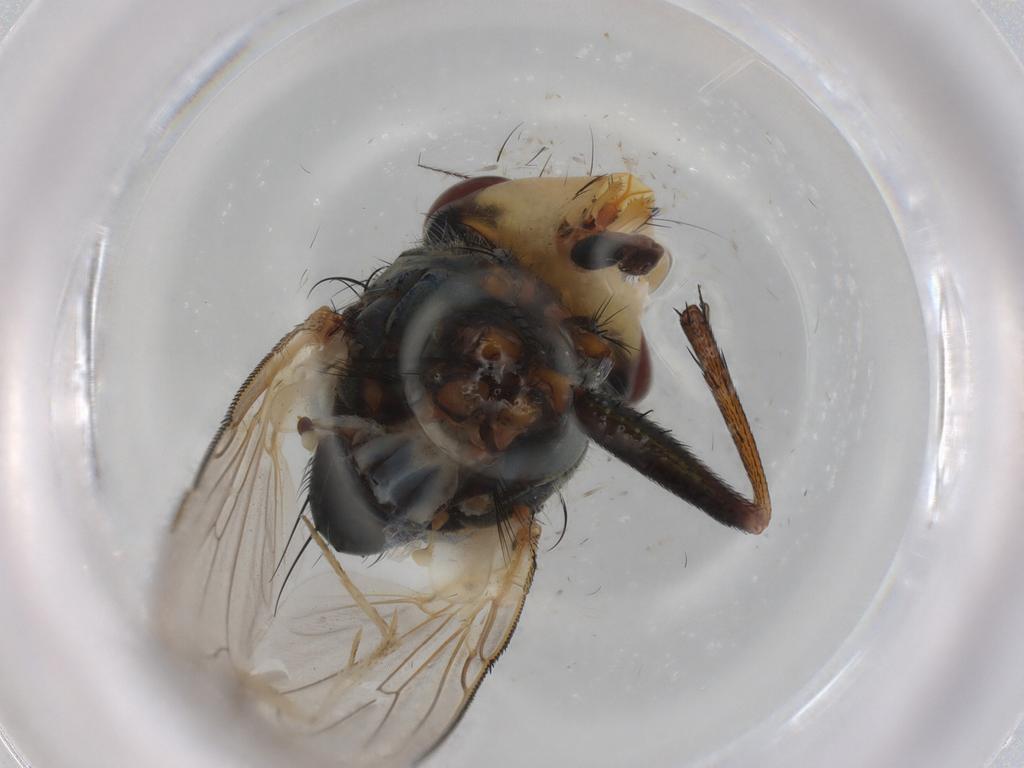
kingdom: Animalia
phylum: Arthropoda
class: Insecta
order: Diptera
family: Calliphoridae
